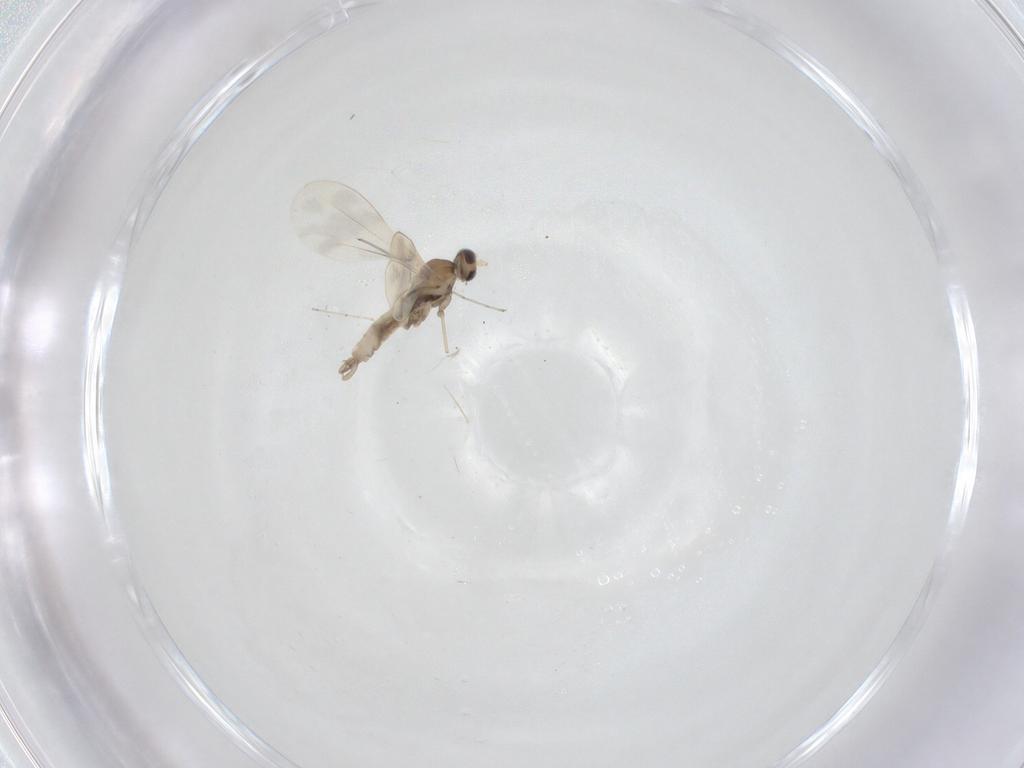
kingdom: Animalia
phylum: Arthropoda
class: Insecta
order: Diptera
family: Cecidomyiidae
